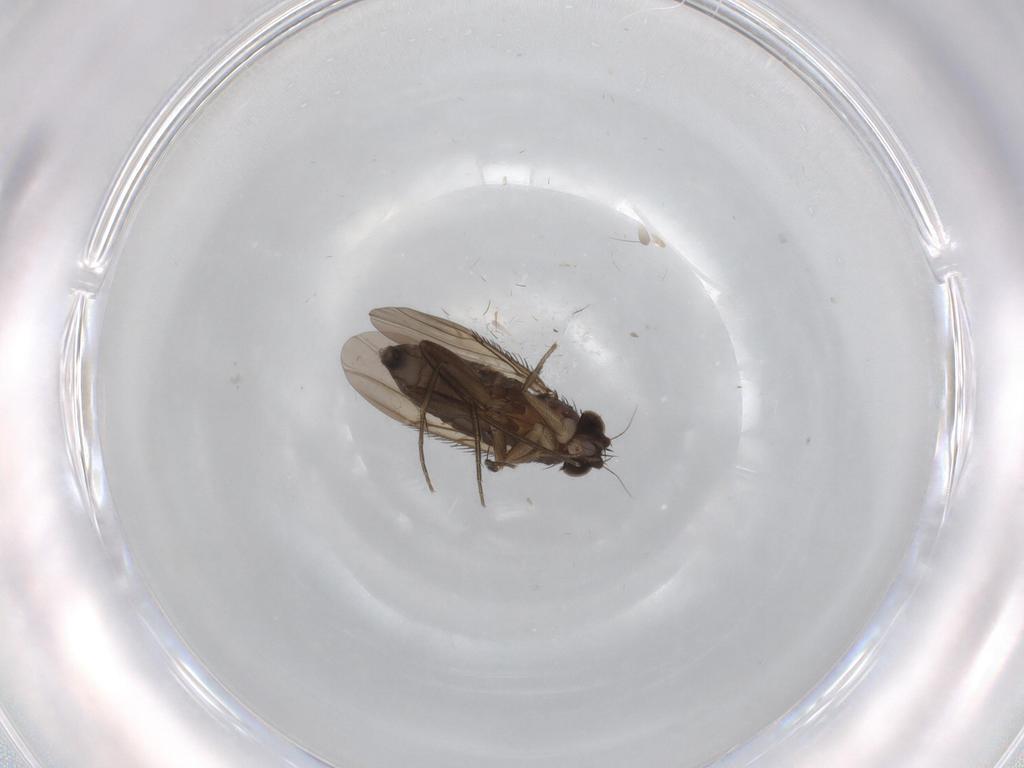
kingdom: Animalia
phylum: Arthropoda
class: Insecta
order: Diptera
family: Phoridae
